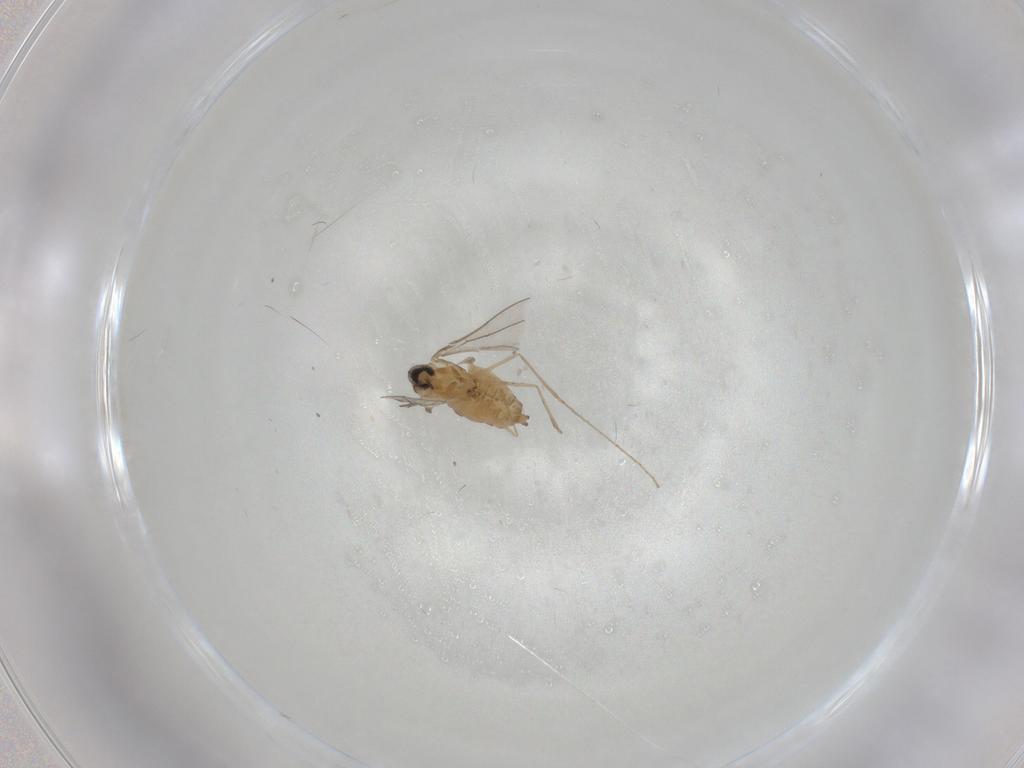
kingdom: Animalia
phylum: Arthropoda
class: Insecta
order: Diptera
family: Cecidomyiidae
